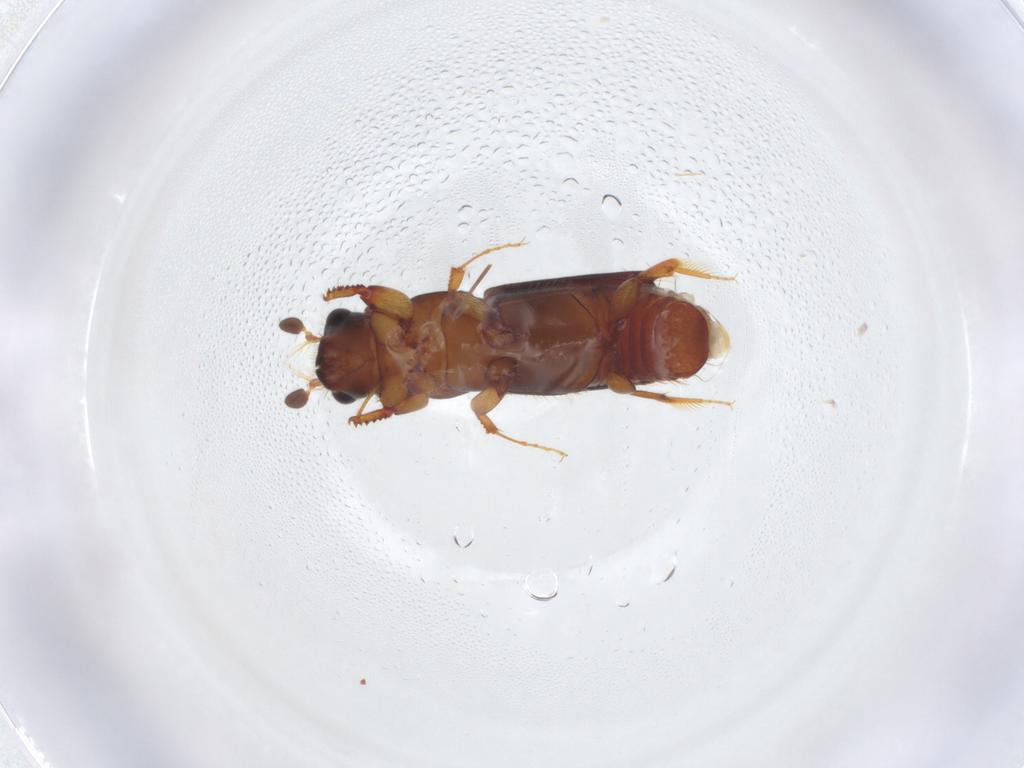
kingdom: Animalia
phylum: Arthropoda
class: Insecta
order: Coleoptera
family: Curculionidae
